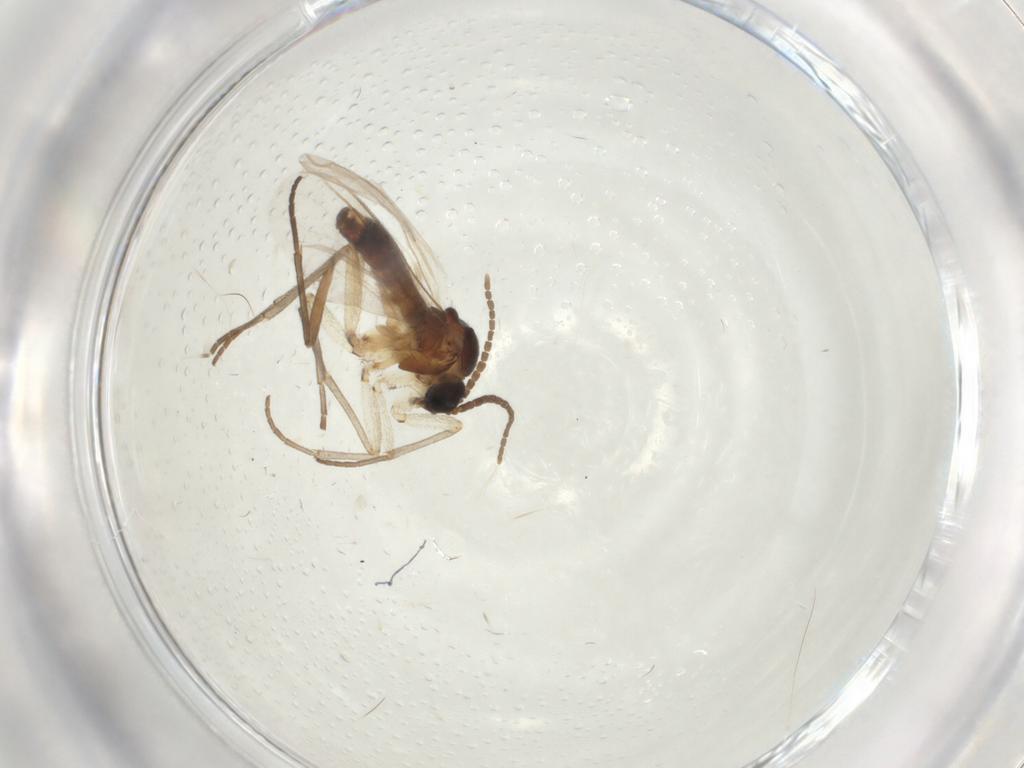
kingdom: Animalia
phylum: Arthropoda
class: Insecta
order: Diptera
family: Sciaridae
